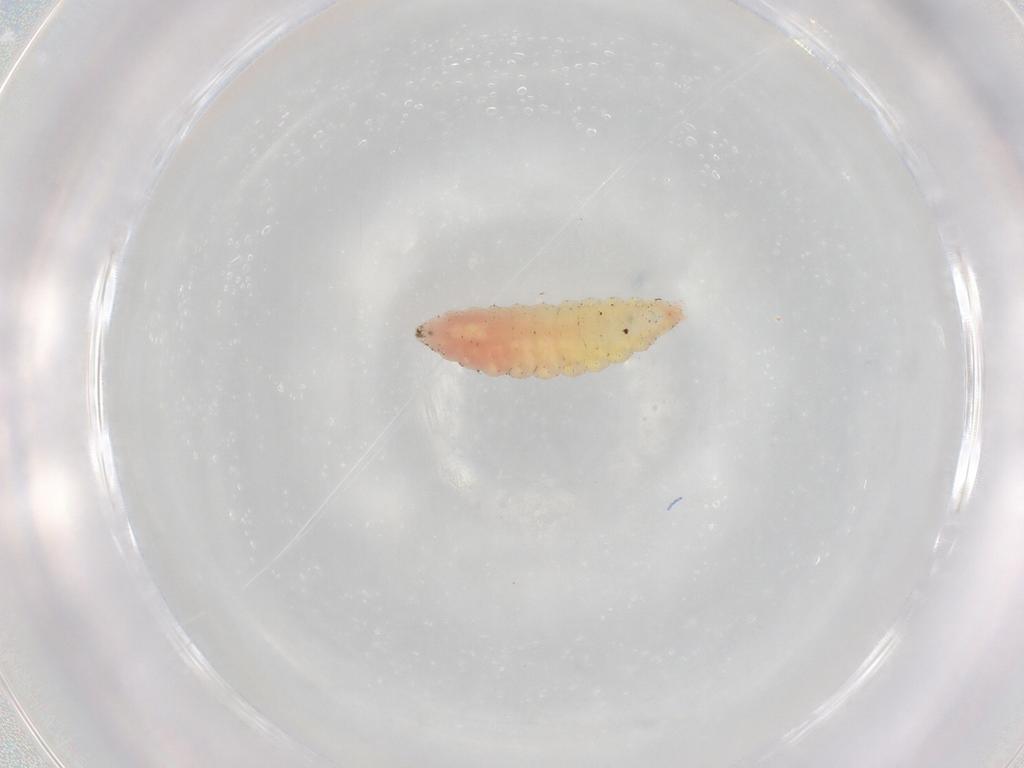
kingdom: Animalia
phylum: Arthropoda
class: Insecta
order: Diptera
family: Cecidomyiidae
